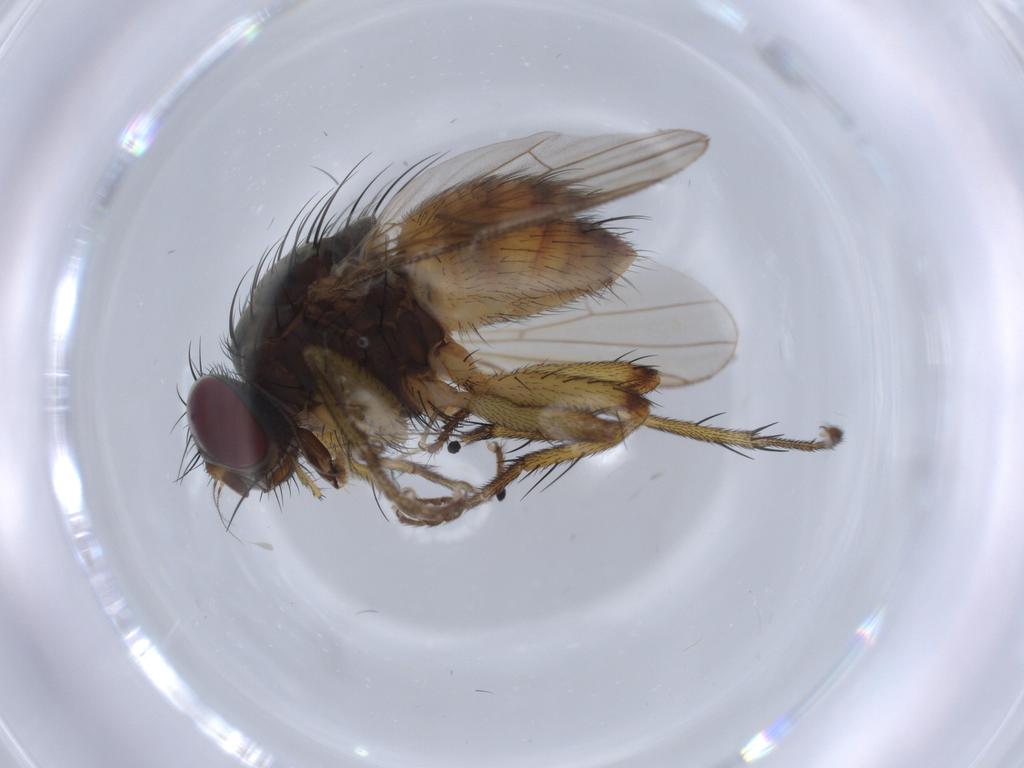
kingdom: Animalia
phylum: Arthropoda
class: Insecta
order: Diptera
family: Muscidae
